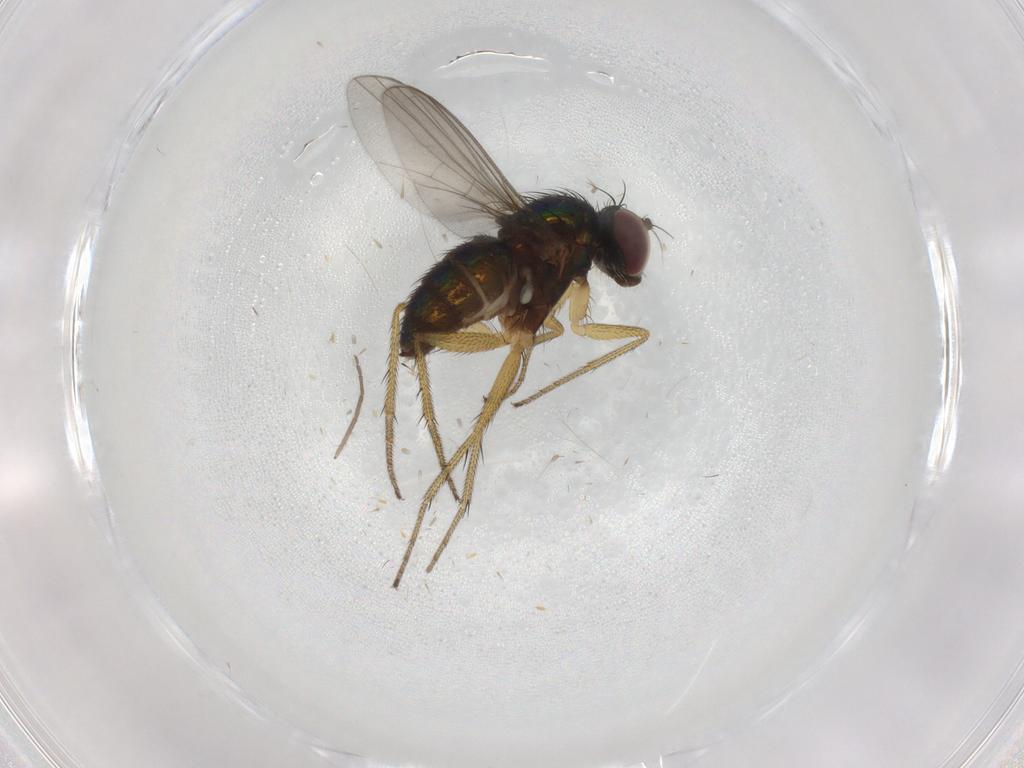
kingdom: Animalia
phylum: Arthropoda
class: Insecta
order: Diptera
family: Dolichopodidae
